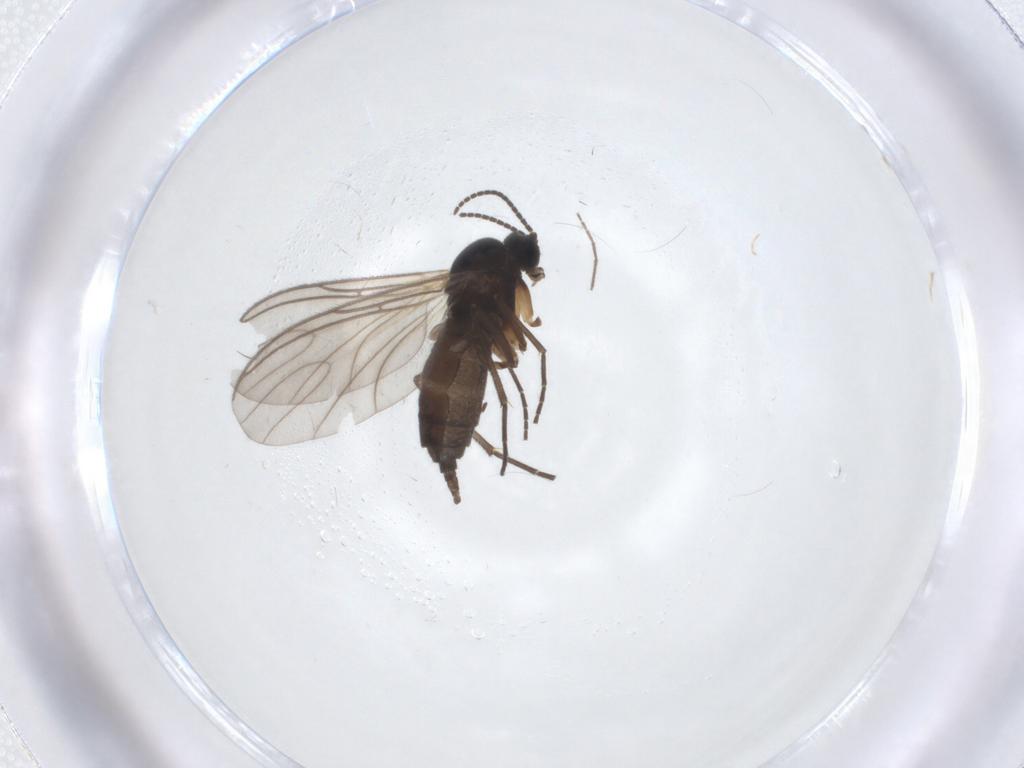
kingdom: Animalia
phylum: Arthropoda
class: Insecta
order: Diptera
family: Sciaridae
